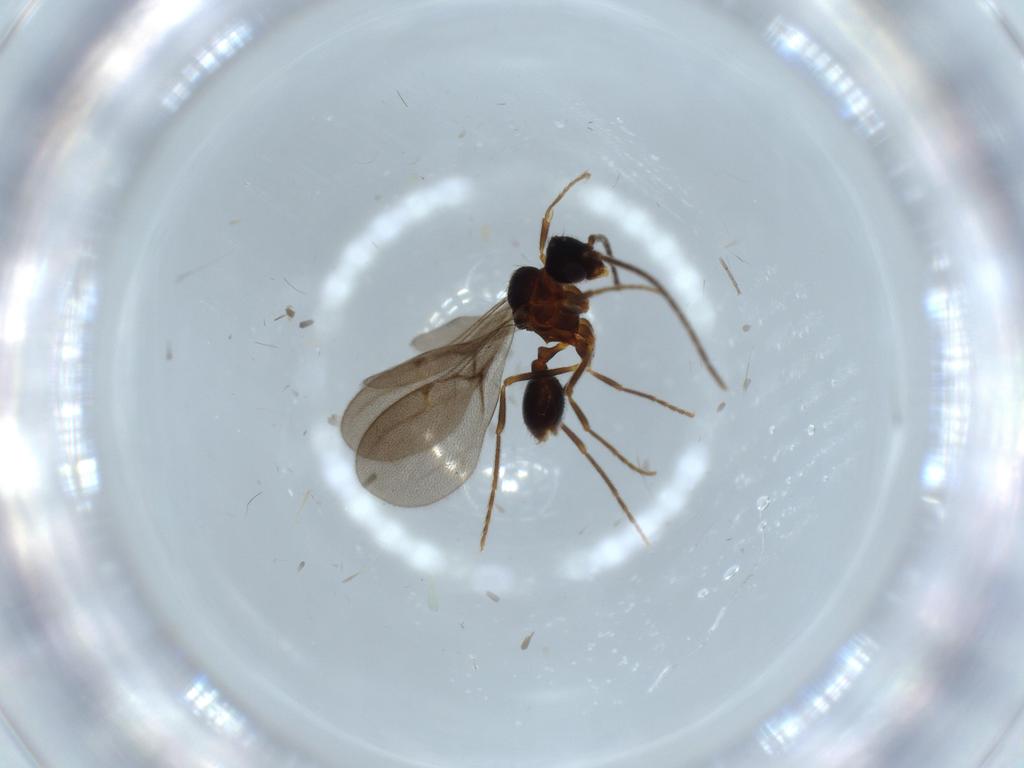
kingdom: Animalia
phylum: Arthropoda
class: Insecta
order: Hymenoptera
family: Formicidae
